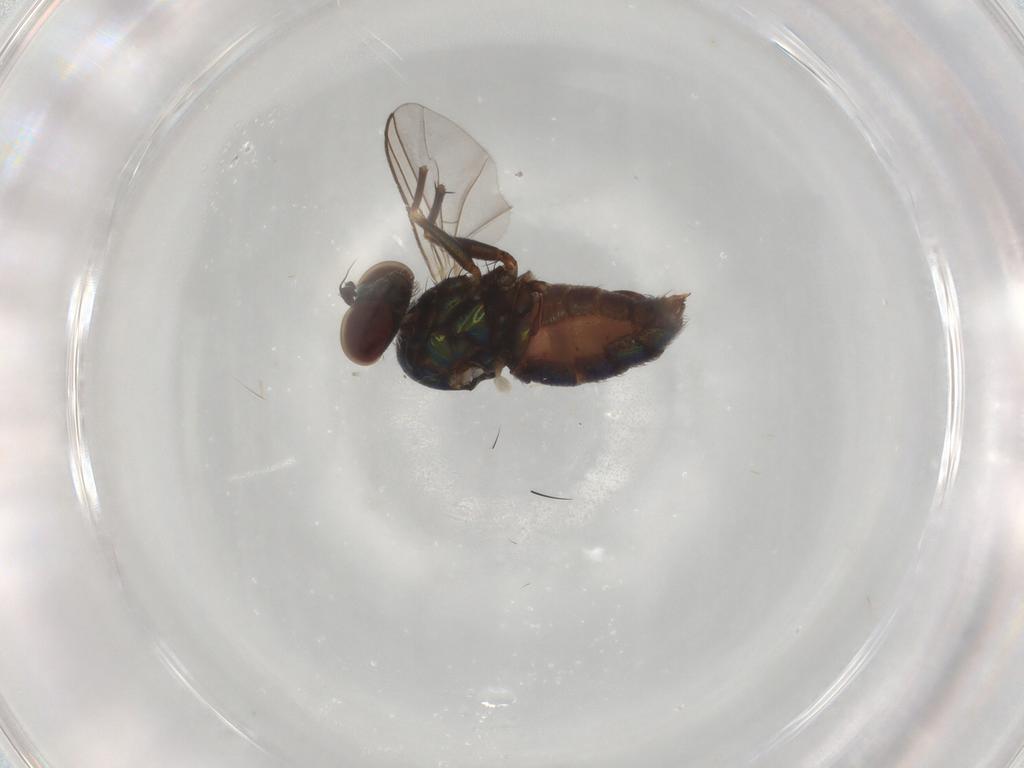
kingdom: Animalia
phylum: Arthropoda
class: Insecta
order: Diptera
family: Dolichopodidae
